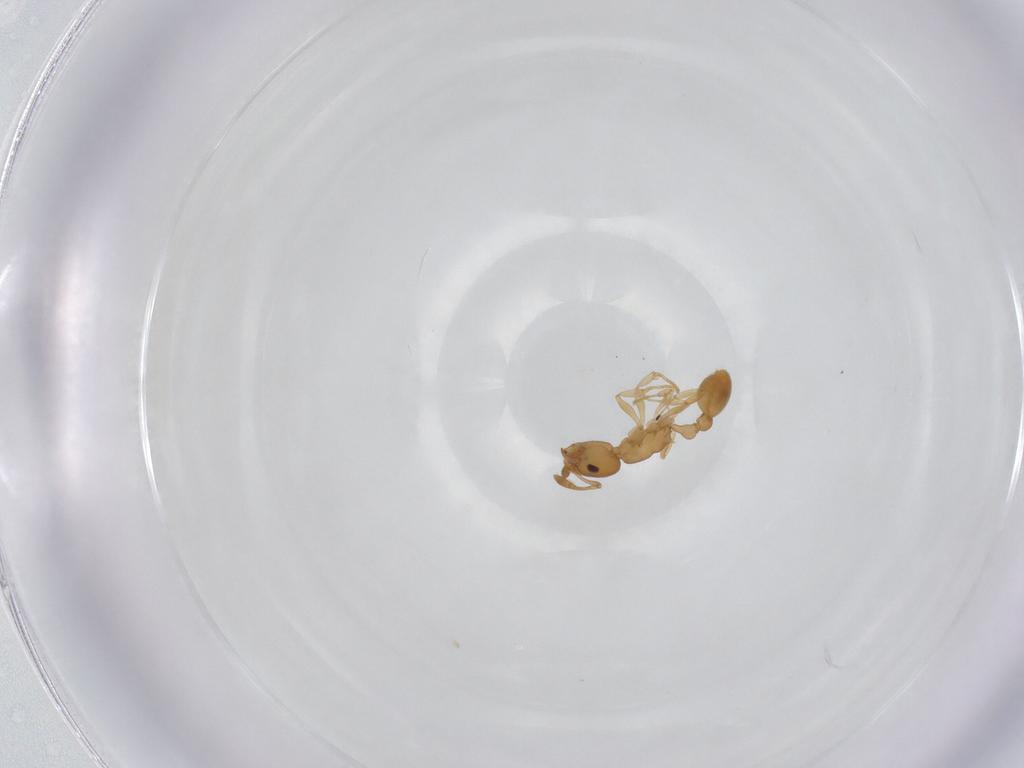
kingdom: Animalia
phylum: Arthropoda
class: Insecta
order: Hymenoptera
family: Formicidae
